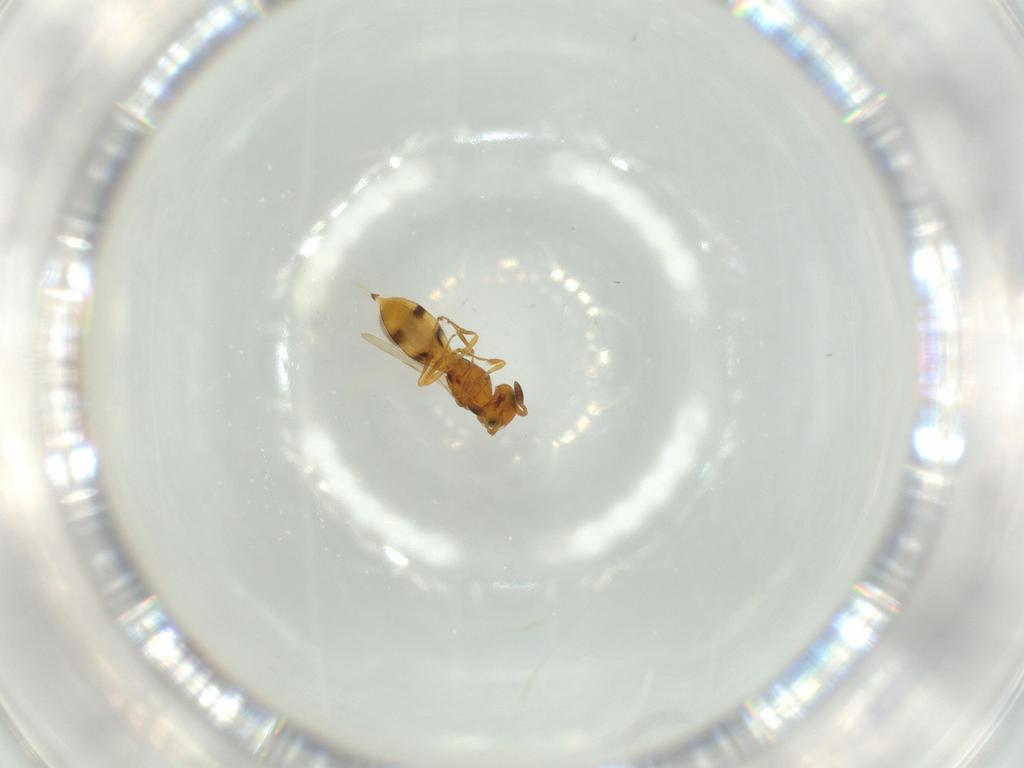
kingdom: Animalia
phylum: Arthropoda
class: Insecta
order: Hymenoptera
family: Scelionidae
